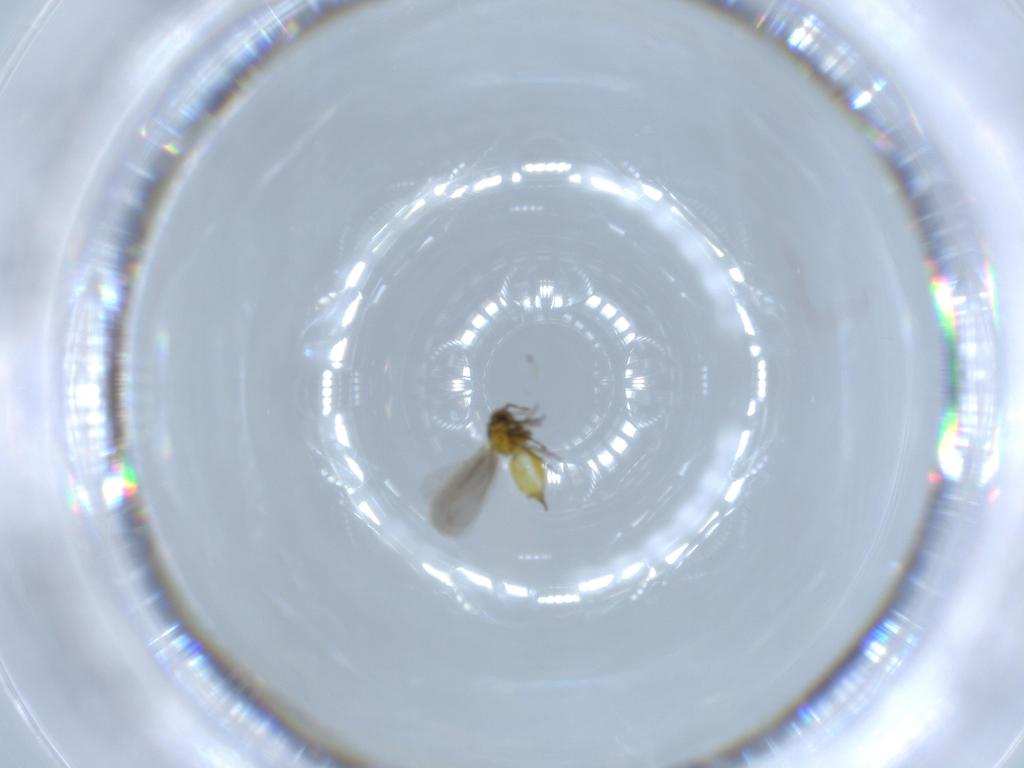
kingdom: Animalia
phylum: Arthropoda
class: Insecta
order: Hemiptera
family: Aleyrodidae
